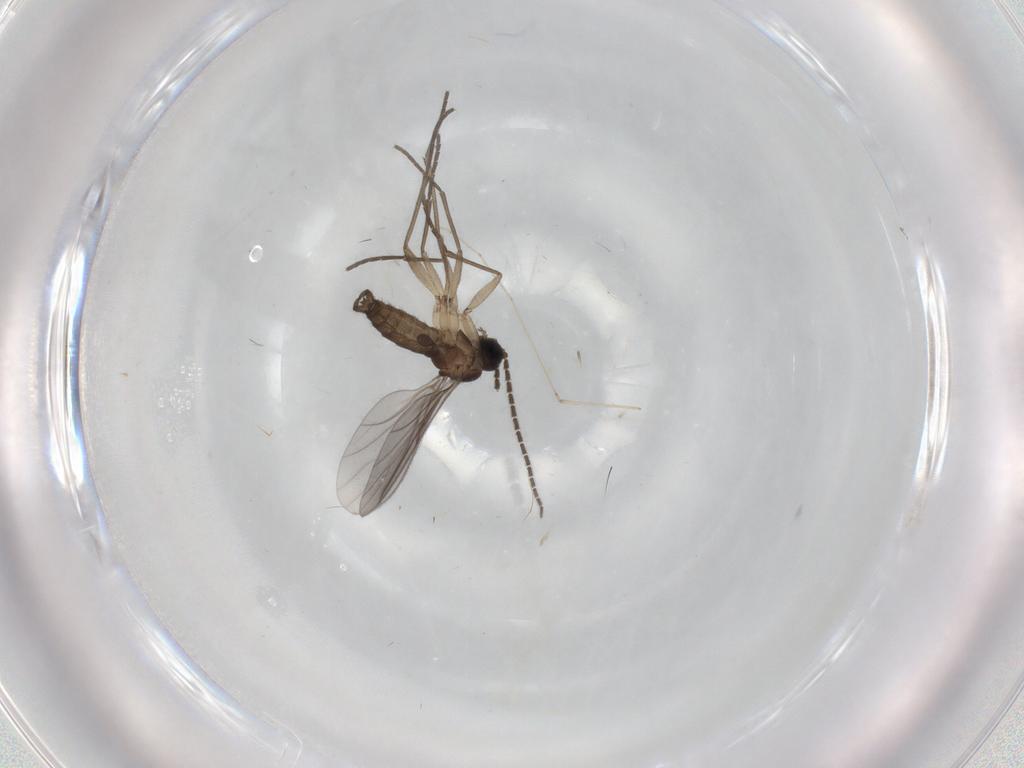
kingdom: Animalia
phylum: Arthropoda
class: Insecta
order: Diptera
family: Sciaridae
